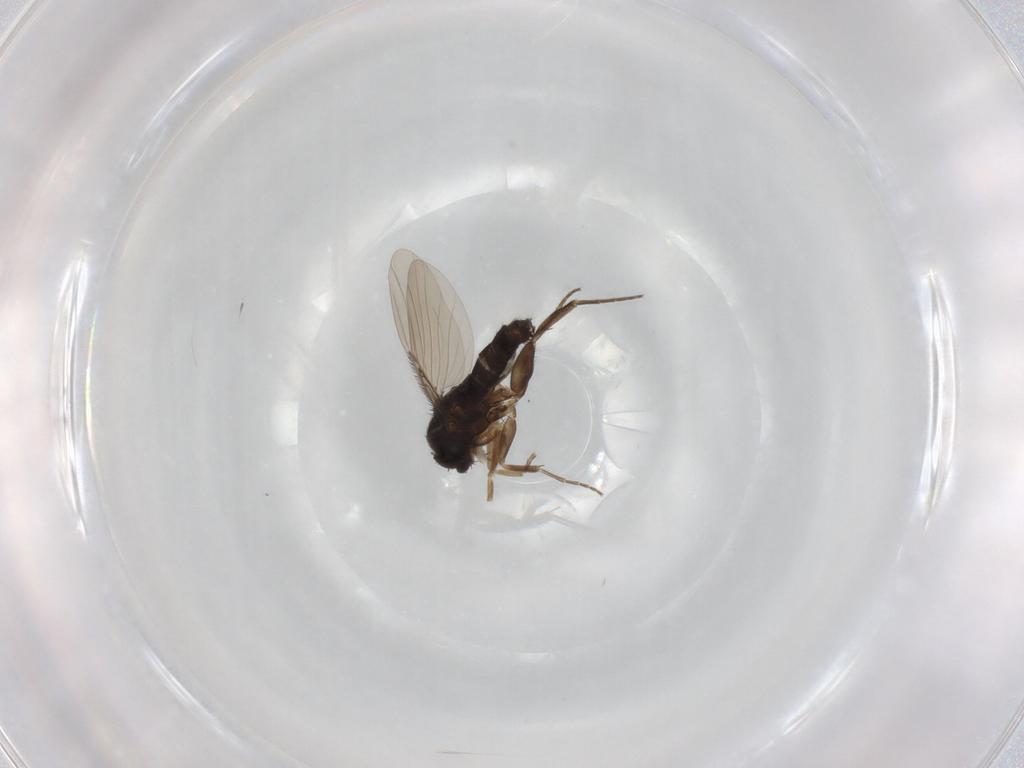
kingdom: Animalia
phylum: Arthropoda
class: Insecta
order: Diptera
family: Phoridae
